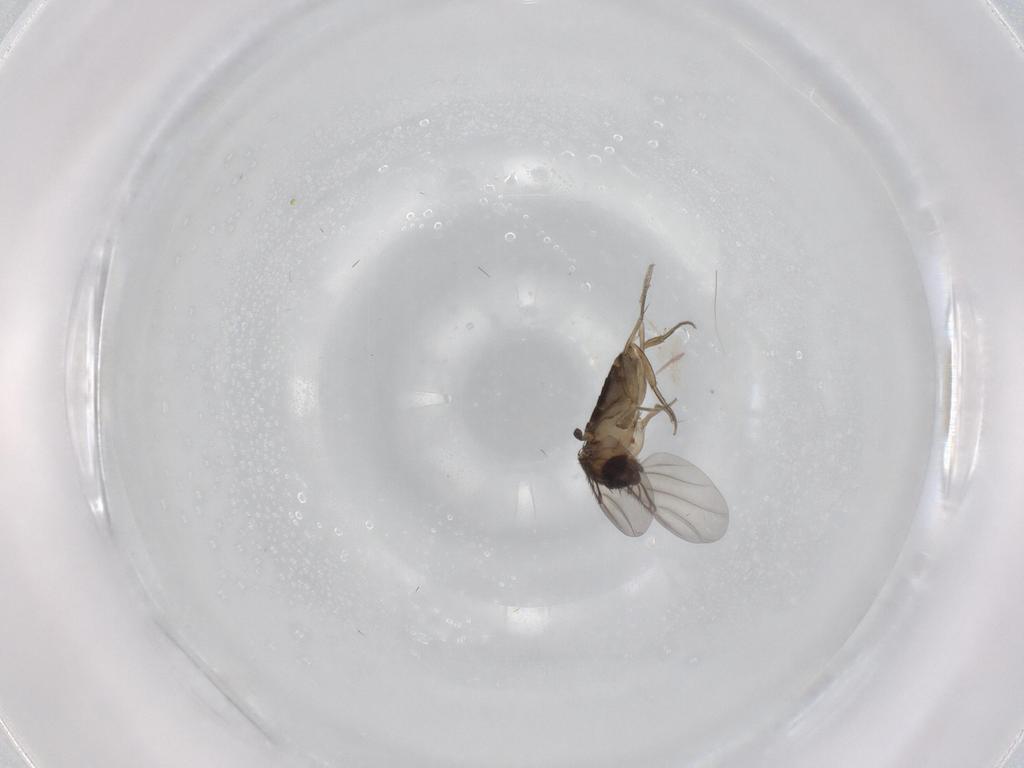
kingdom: Animalia
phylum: Arthropoda
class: Insecta
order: Diptera
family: Phoridae
